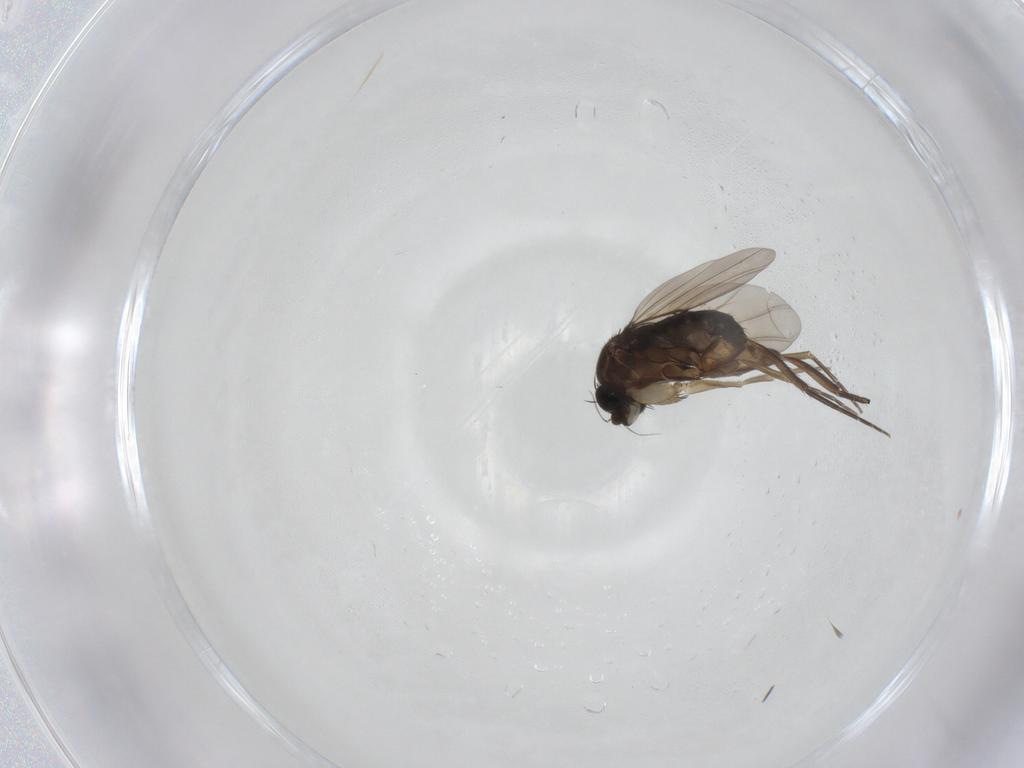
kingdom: Animalia
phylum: Arthropoda
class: Insecta
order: Diptera
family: Phoridae
